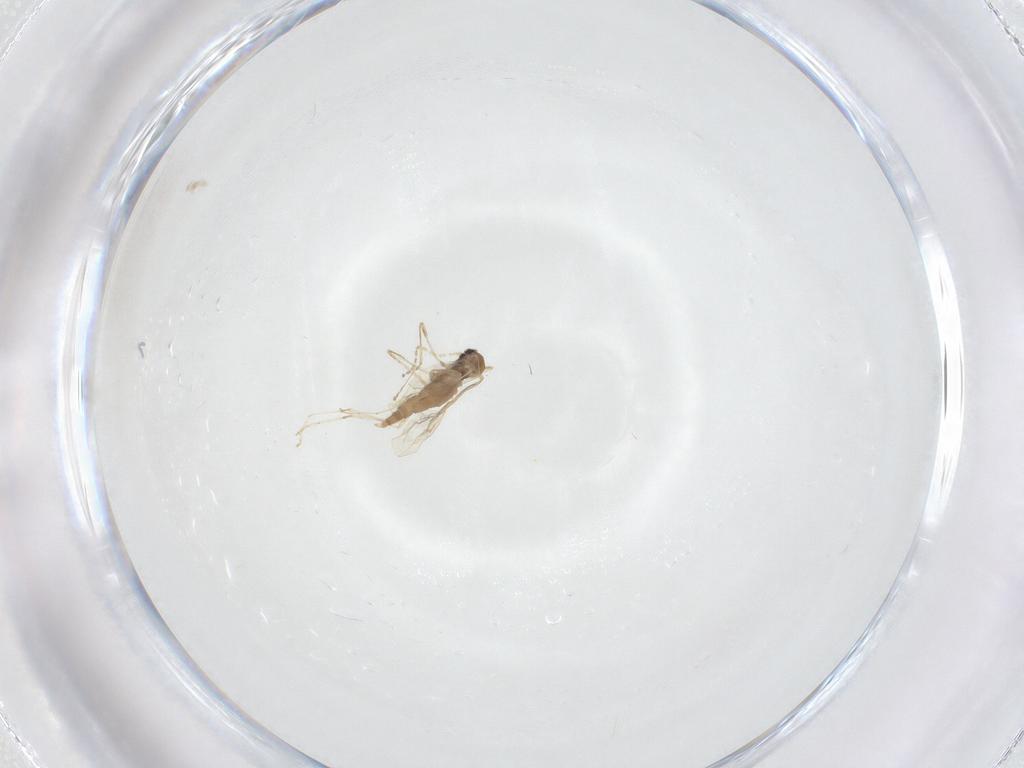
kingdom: Animalia
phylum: Arthropoda
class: Insecta
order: Diptera
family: Cecidomyiidae
